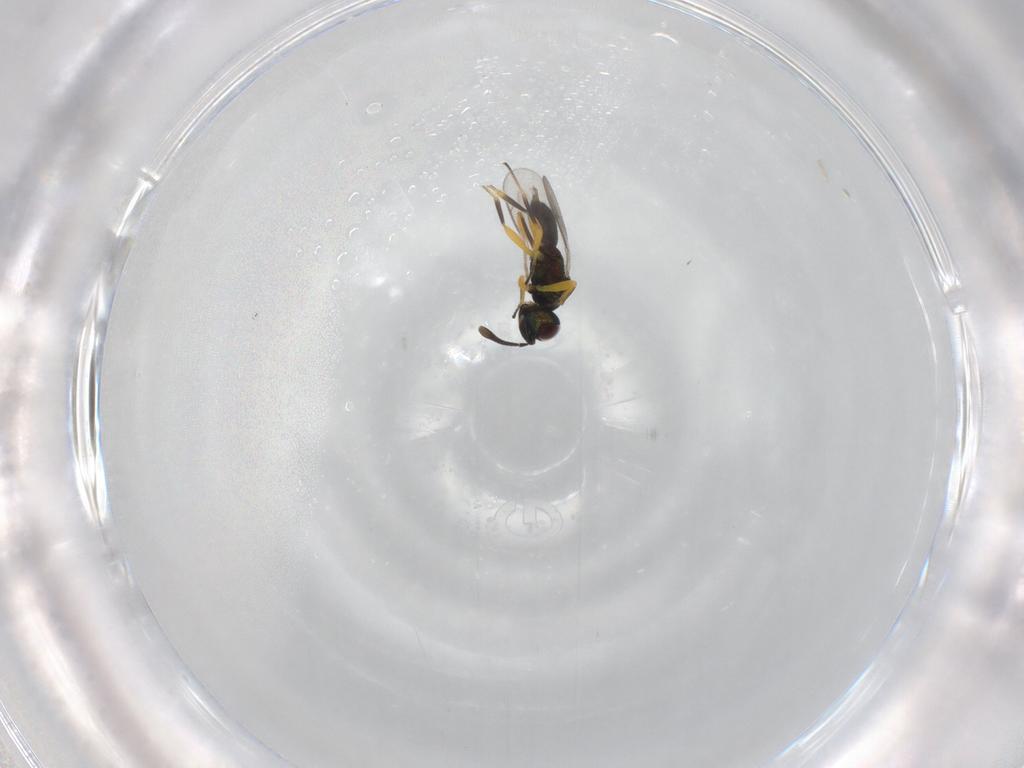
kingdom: Animalia
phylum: Arthropoda
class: Insecta
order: Hymenoptera
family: Eupelmidae
